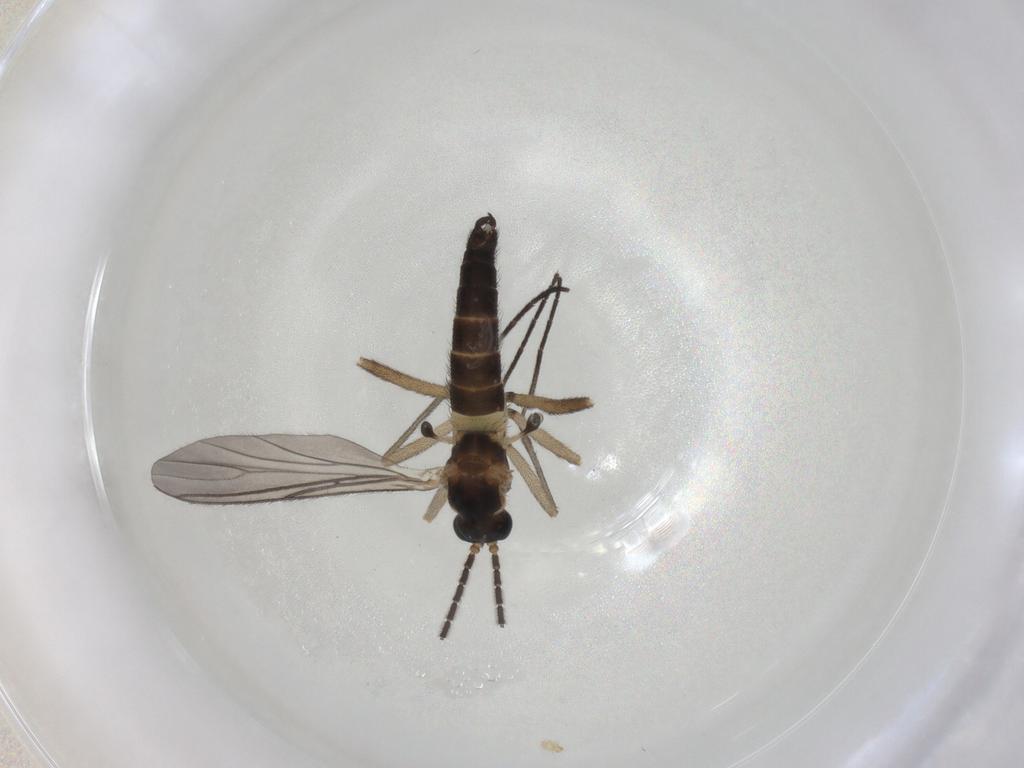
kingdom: Animalia
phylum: Arthropoda
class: Insecta
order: Diptera
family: Sciaridae
